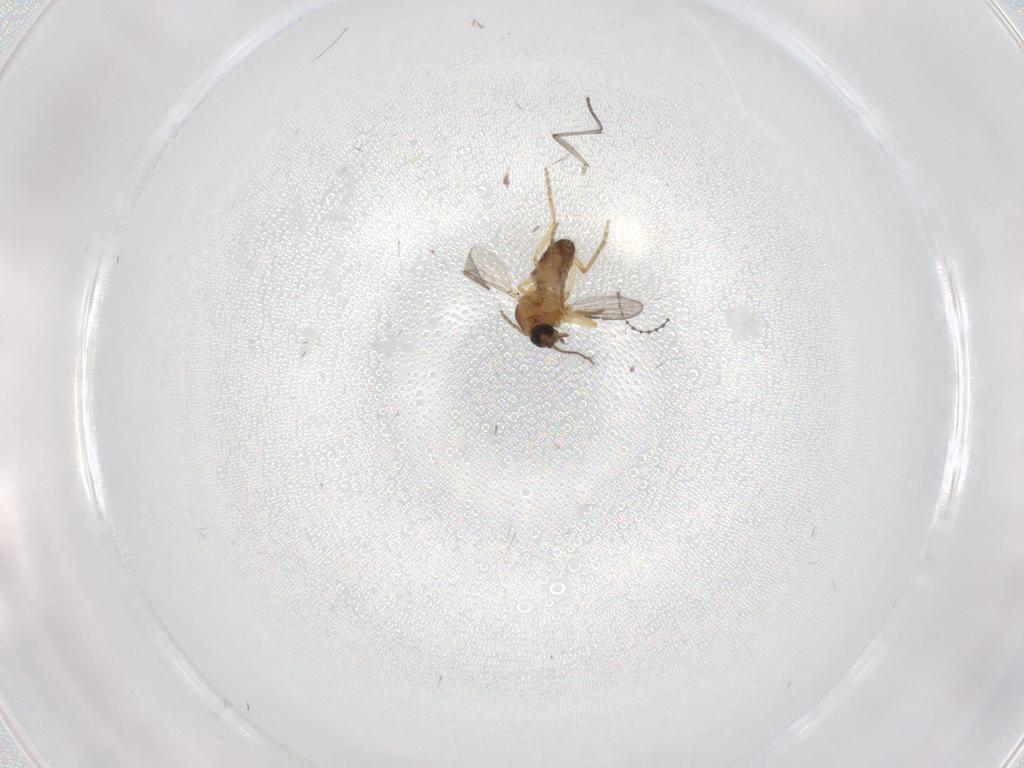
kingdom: Animalia
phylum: Arthropoda
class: Insecta
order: Diptera
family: Sciaridae
